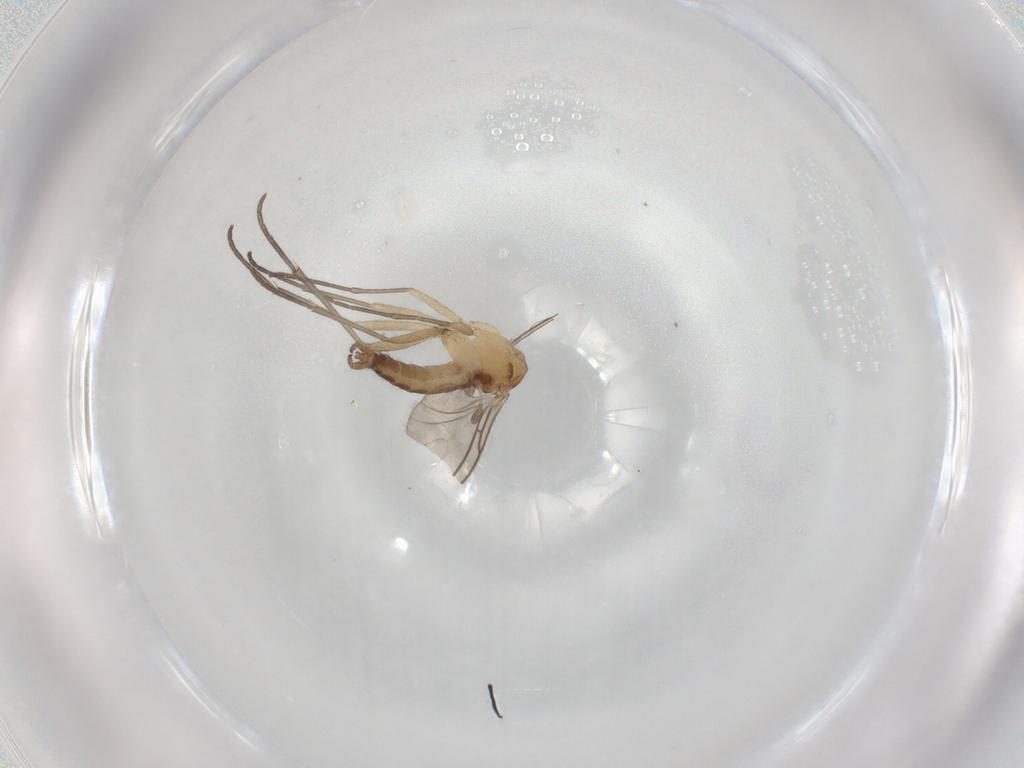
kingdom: Animalia
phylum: Arthropoda
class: Insecta
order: Diptera
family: Sciaridae
